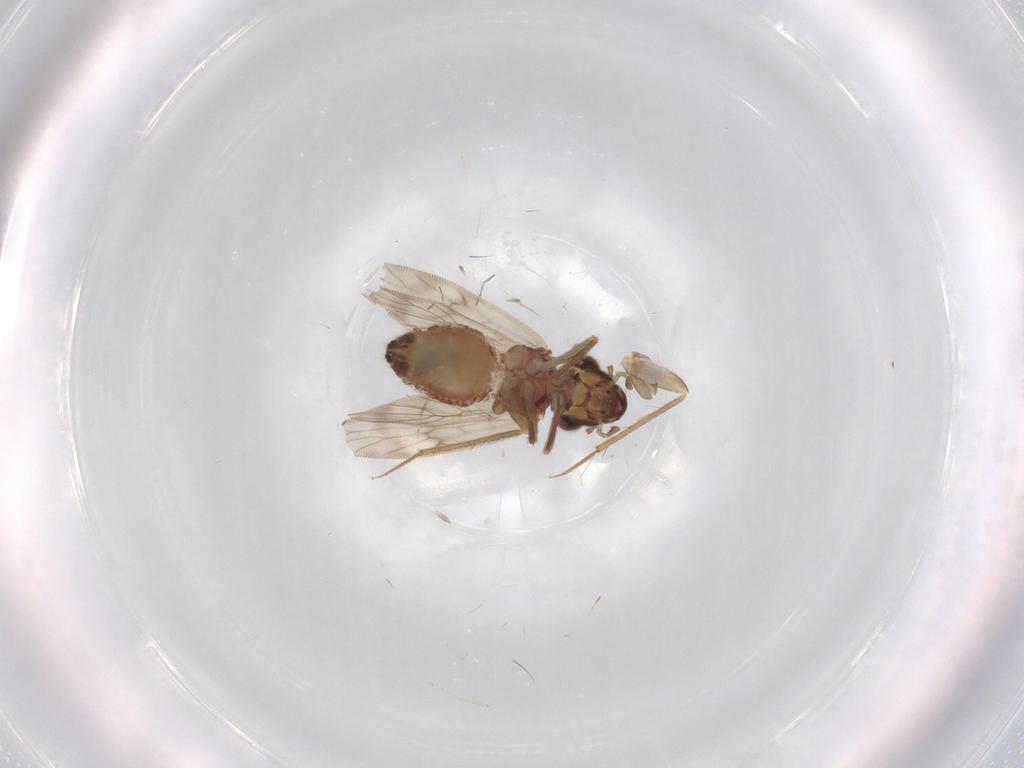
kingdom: Animalia
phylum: Arthropoda
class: Insecta
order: Psocodea
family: Lepidopsocidae
